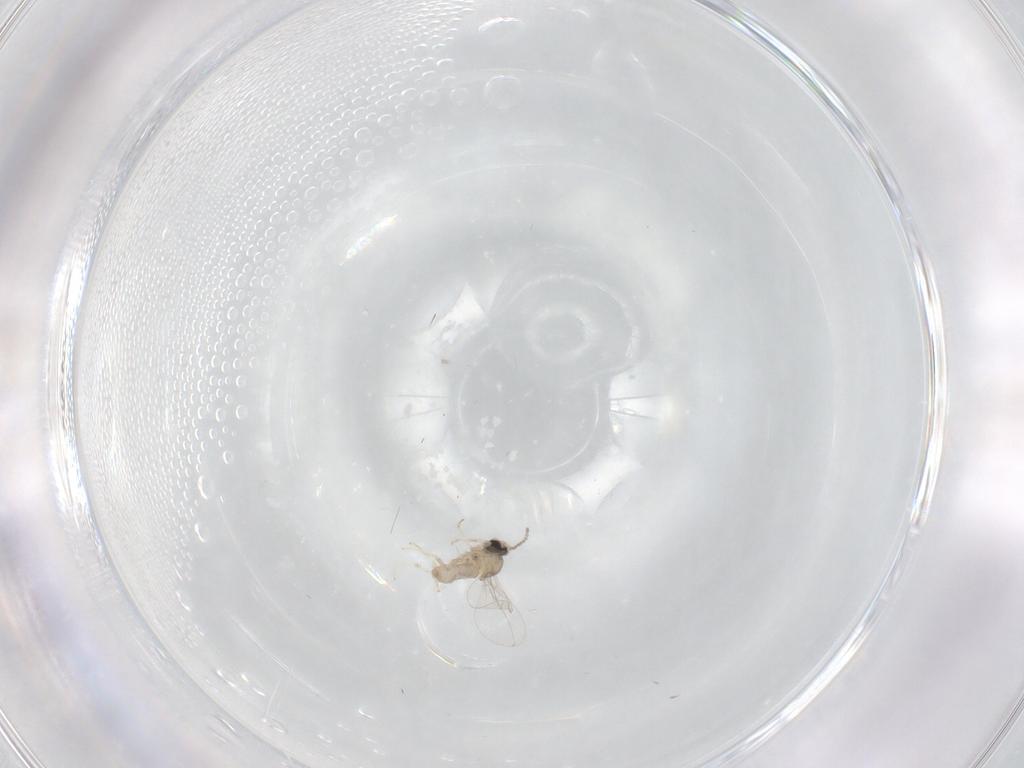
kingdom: Animalia
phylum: Arthropoda
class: Insecta
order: Diptera
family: Cecidomyiidae
